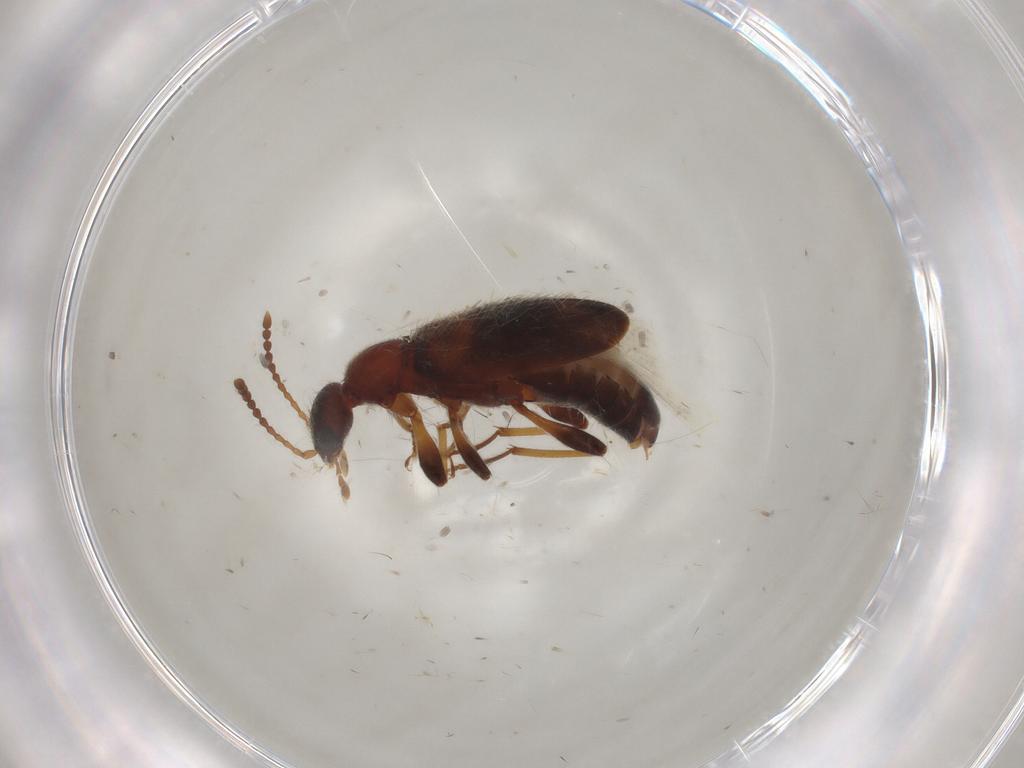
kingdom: Animalia
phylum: Arthropoda
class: Insecta
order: Coleoptera
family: Anthicidae
